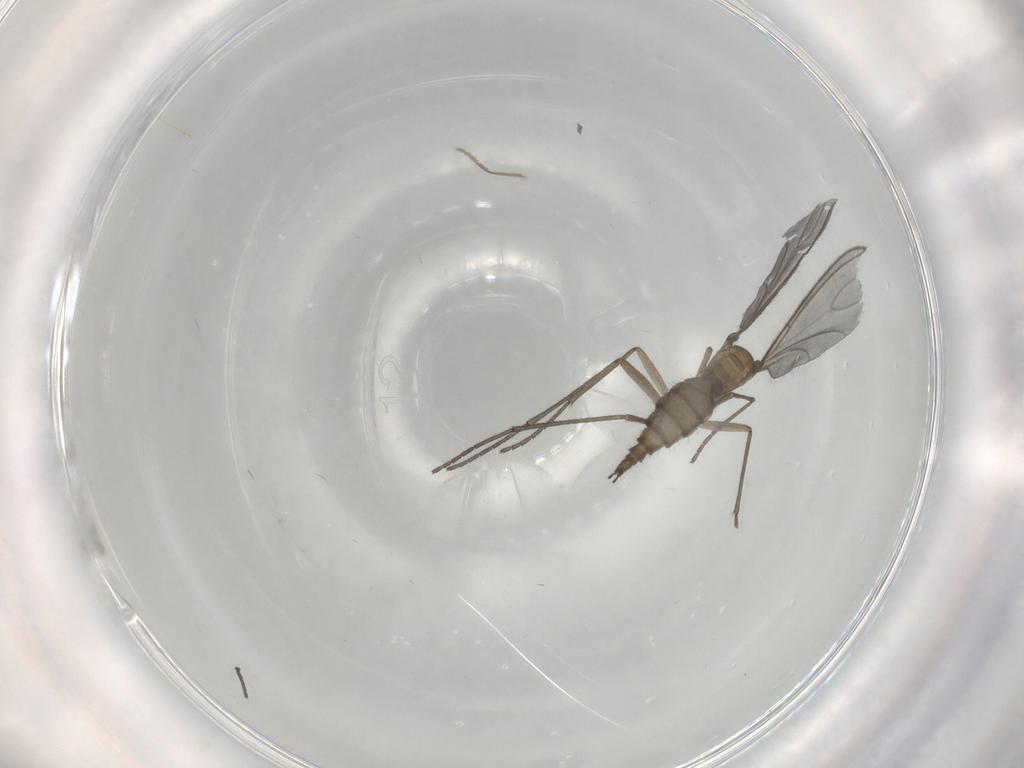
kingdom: Animalia
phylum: Arthropoda
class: Insecta
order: Diptera
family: Sciaridae
